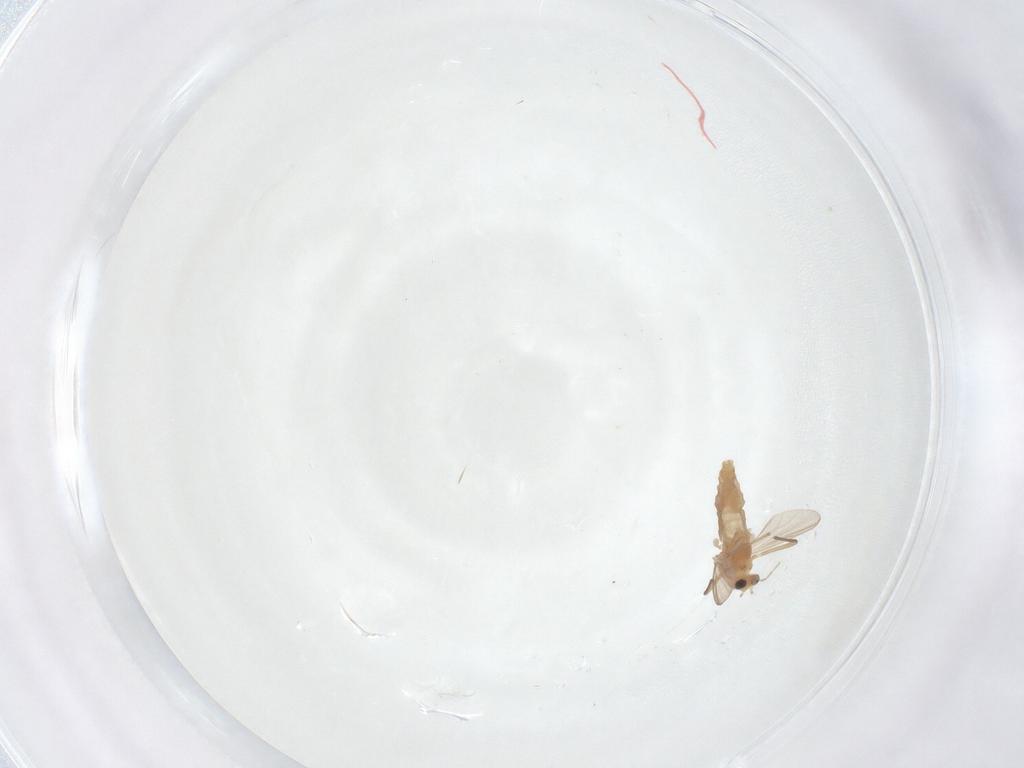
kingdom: Animalia
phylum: Arthropoda
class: Insecta
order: Diptera
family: Chironomidae
